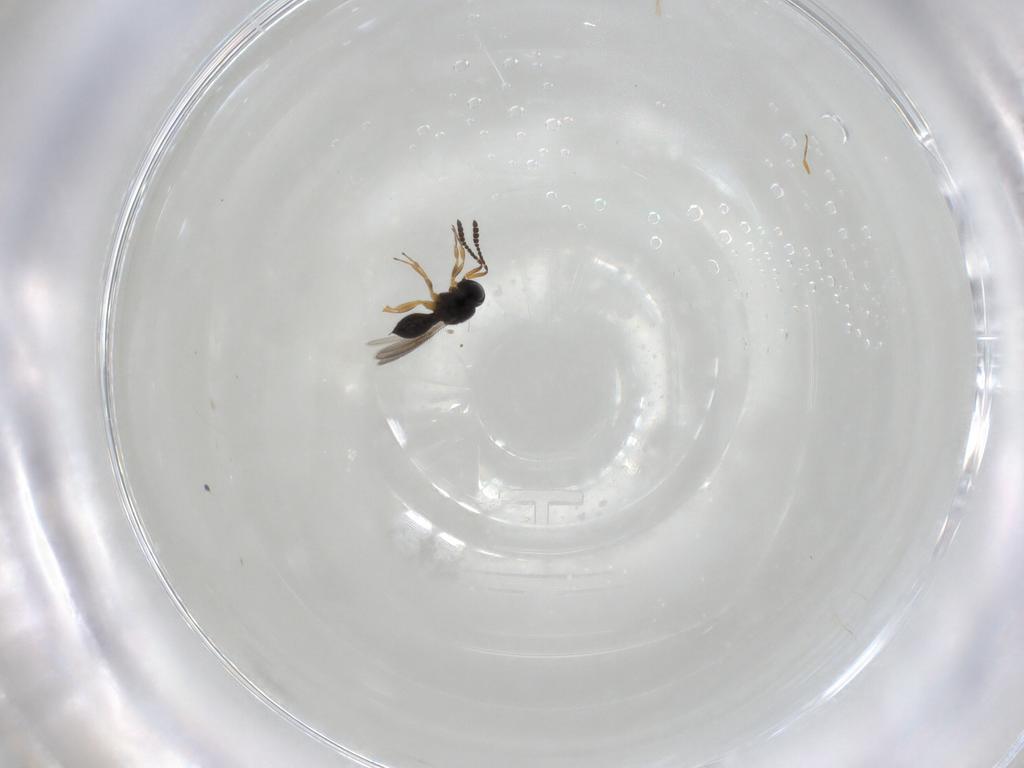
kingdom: Animalia
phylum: Arthropoda
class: Insecta
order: Hymenoptera
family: Scelionidae
